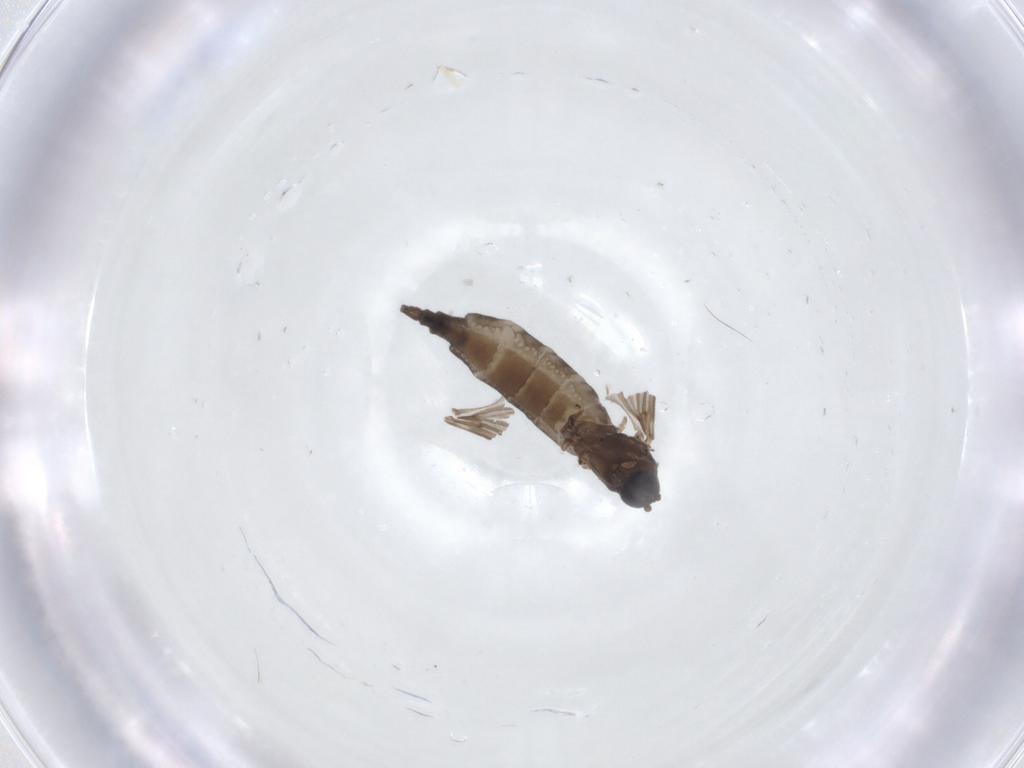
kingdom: Animalia
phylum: Arthropoda
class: Insecta
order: Diptera
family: Sciaridae
